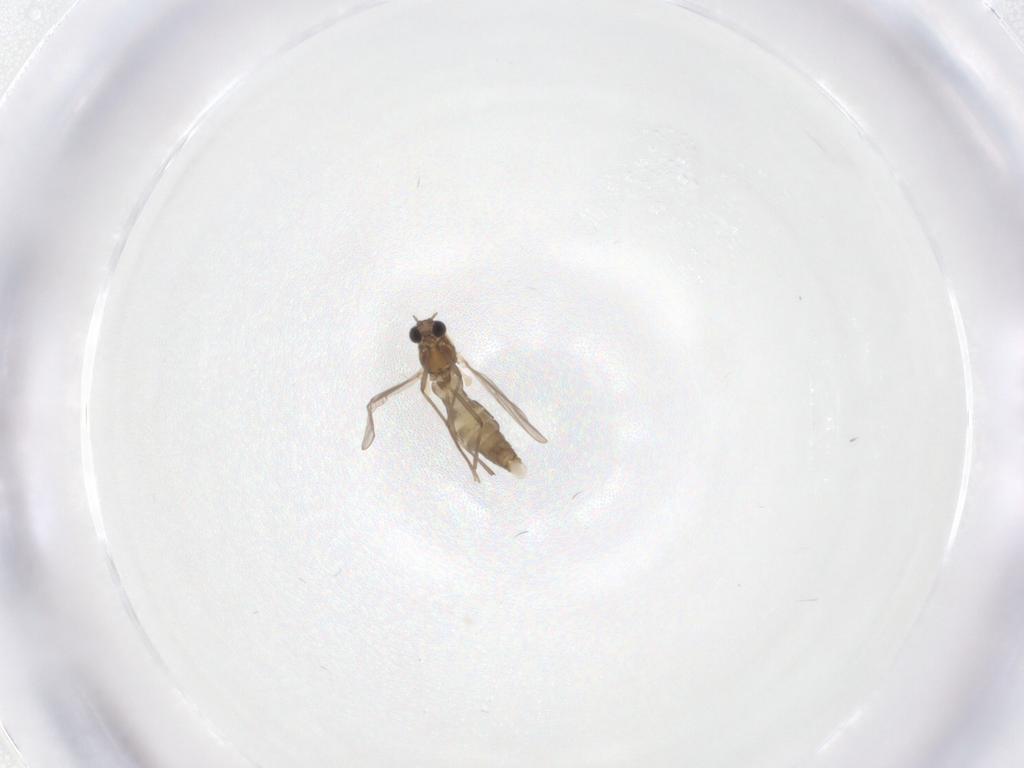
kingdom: Animalia
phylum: Arthropoda
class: Insecta
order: Diptera
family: Chironomidae
